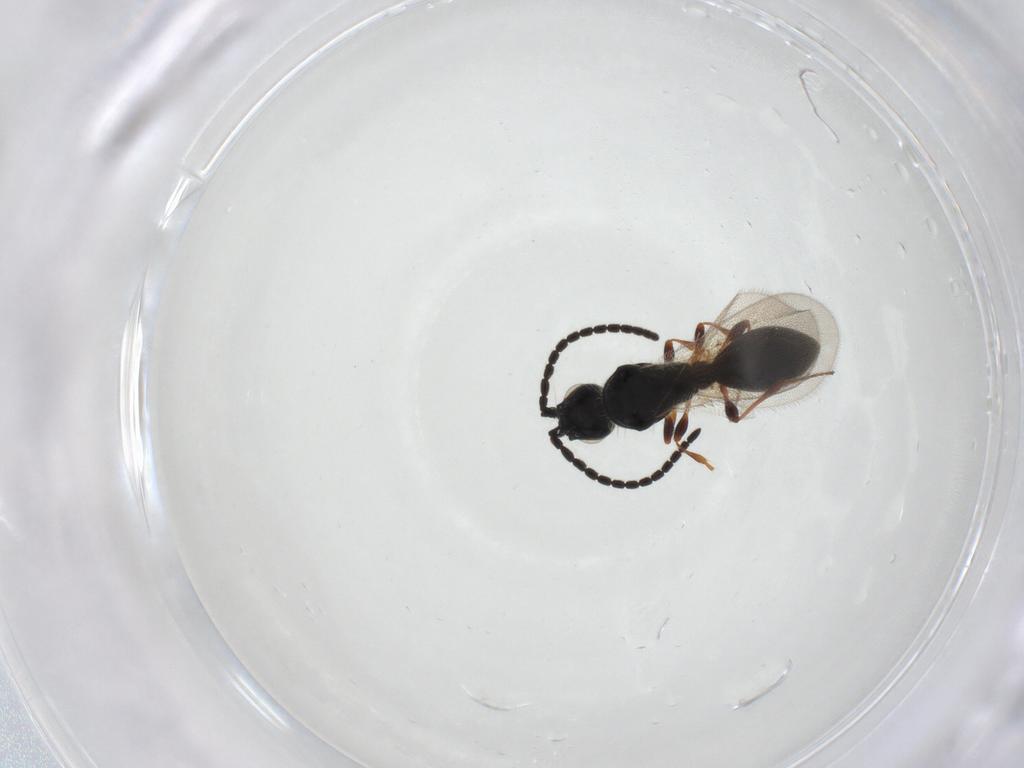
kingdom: Animalia
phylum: Arthropoda
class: Insecta
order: Hymenoptera
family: Diapriidae
